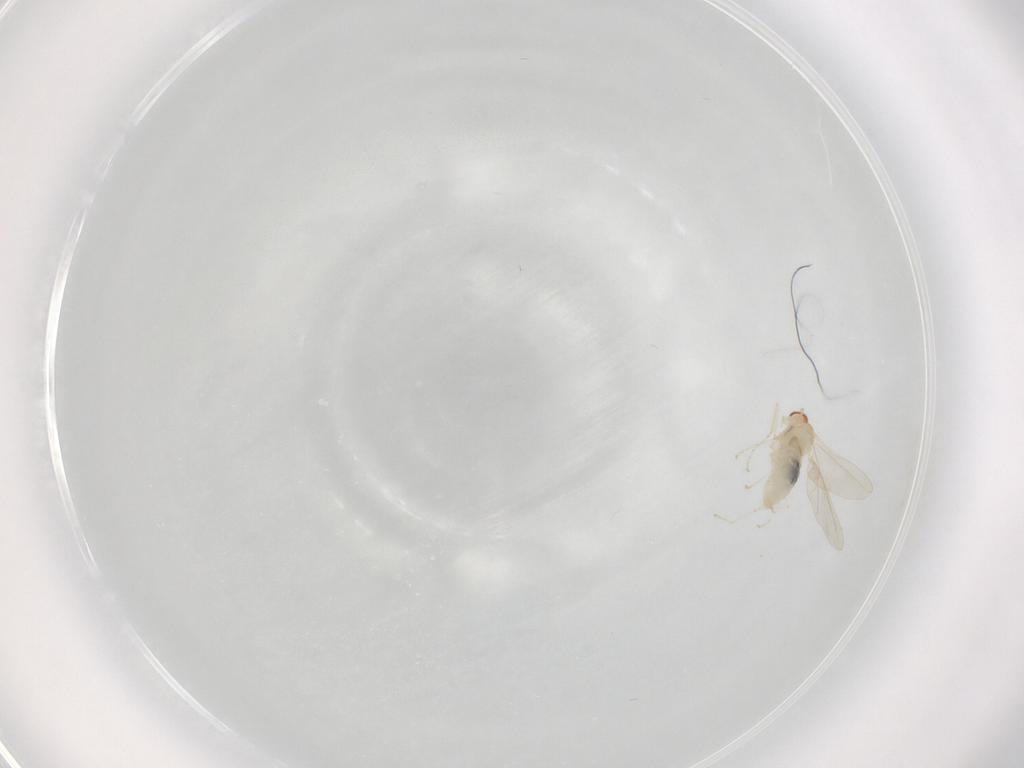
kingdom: Animalia
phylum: Arthropoda
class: Insecta
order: Diptera
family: Cecidomyiidae
